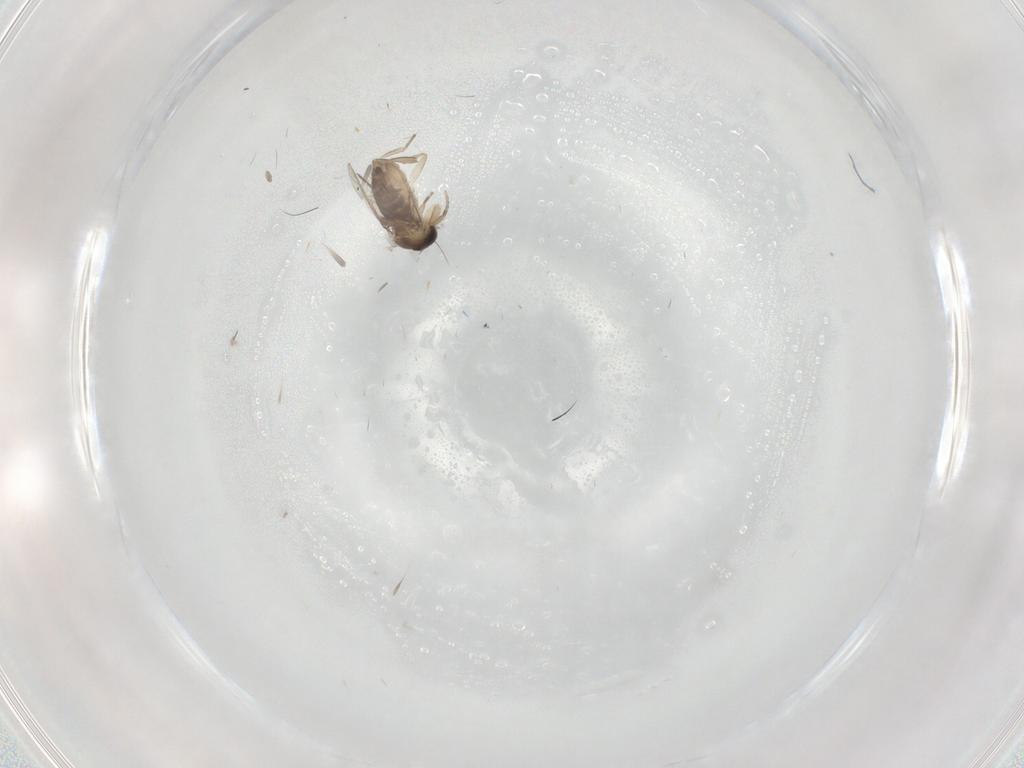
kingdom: Animalia
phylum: Arthropoda
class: Insecta
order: Diptera
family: Phoridae
